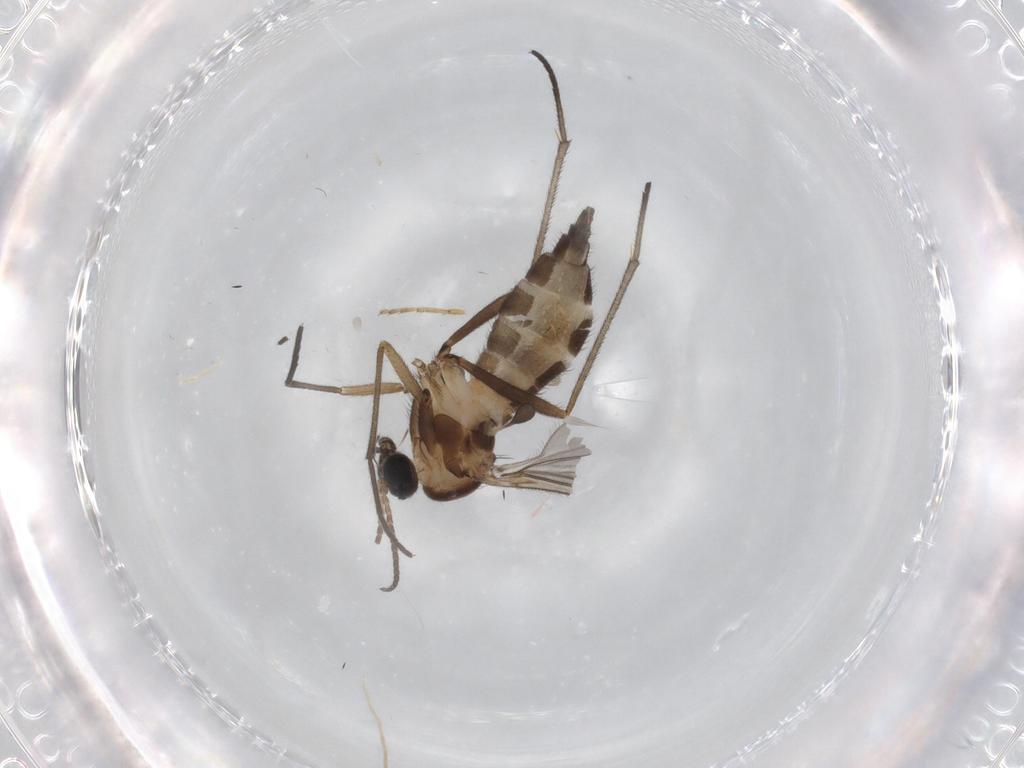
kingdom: Animalia
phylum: Arthropoda
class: Insecta
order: Diptera
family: Sciaridae
